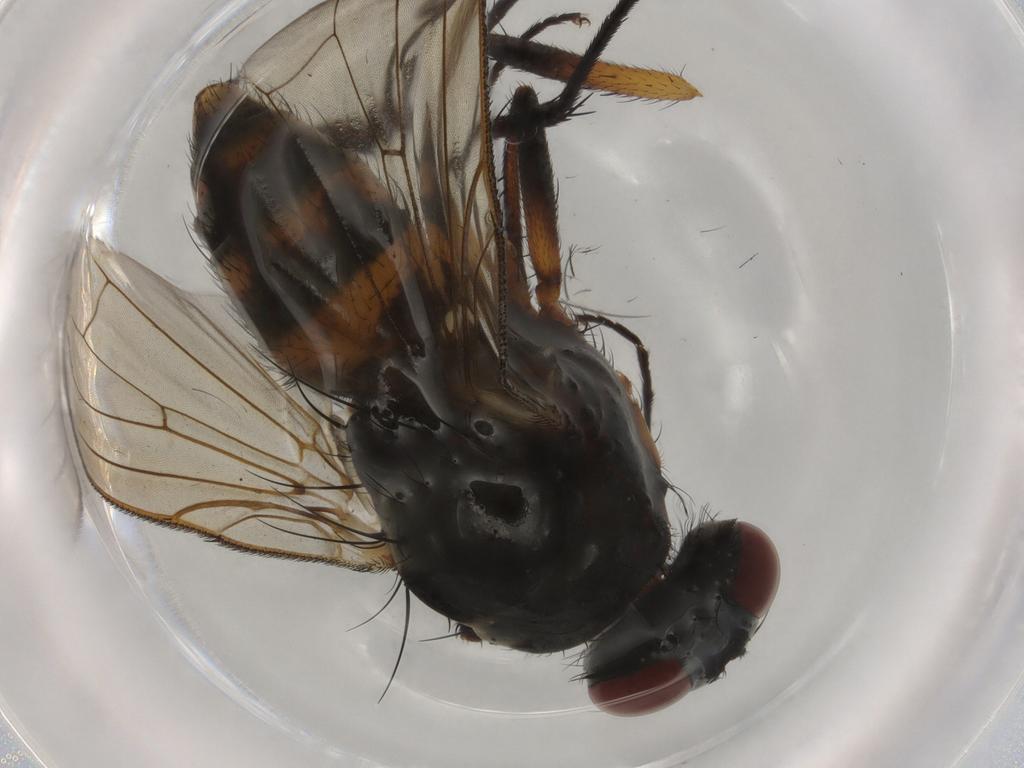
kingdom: Animalia
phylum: Arthropoda
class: Insecta
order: Diptera
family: Anthomyiidae
